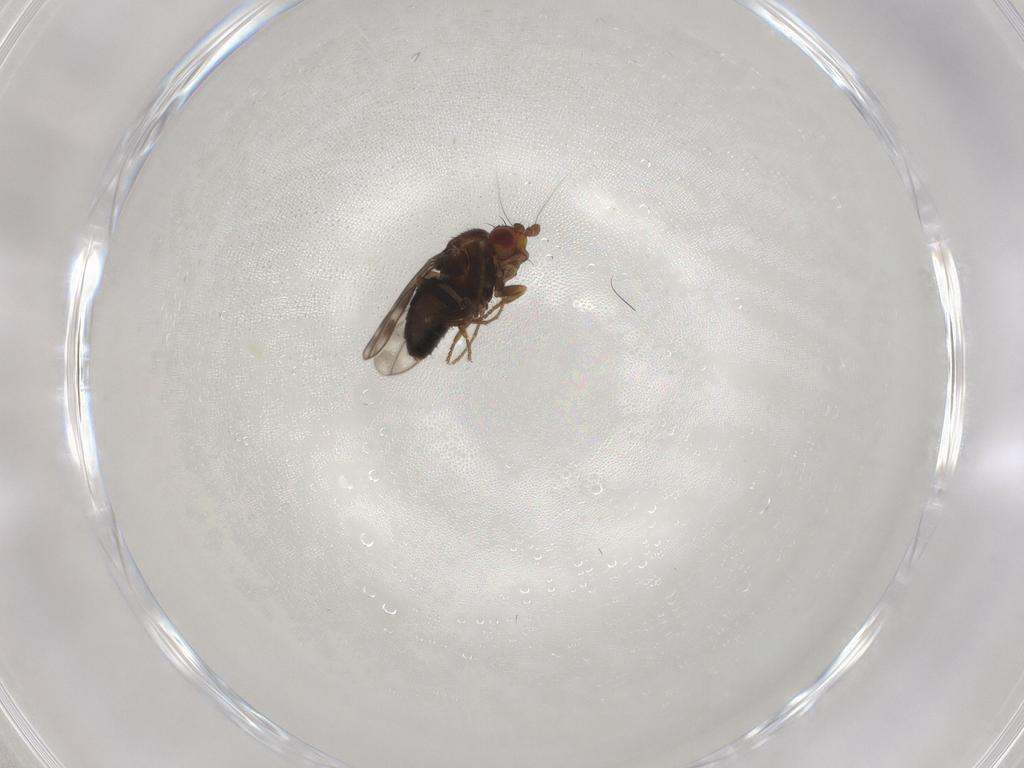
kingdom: Animalia
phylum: Arthropoda
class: Insecta
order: Diptera
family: Sphaeroceridae
